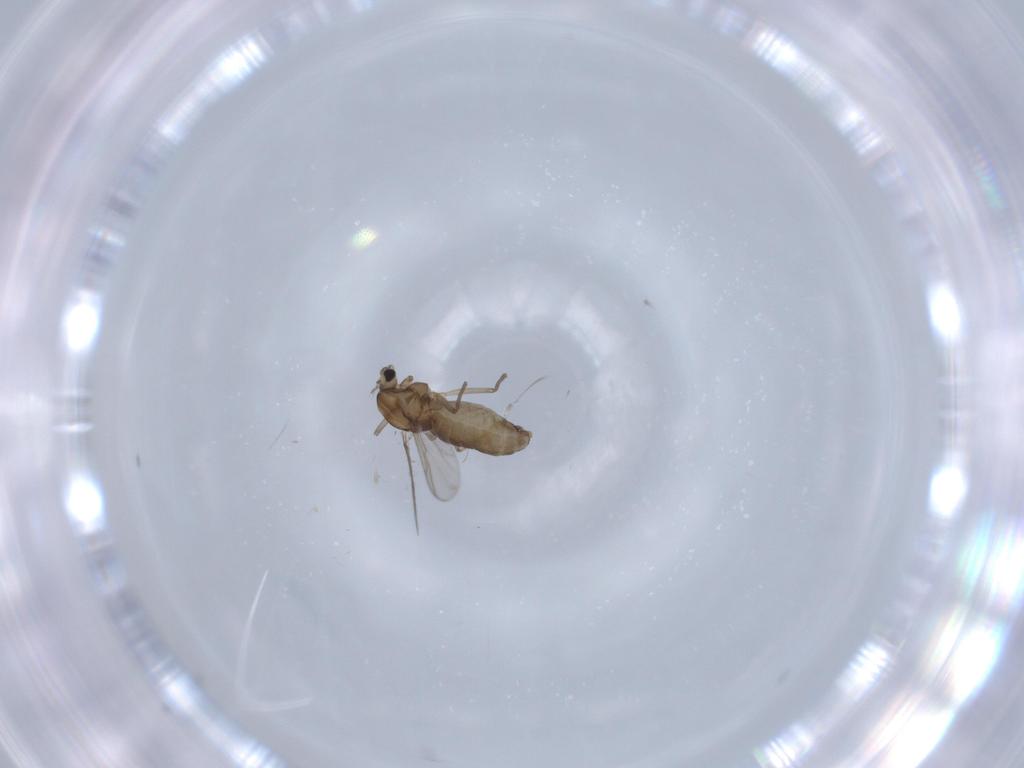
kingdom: Animalia
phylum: Arthropoda
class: Insecta
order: Diptera
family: Chironomidae
